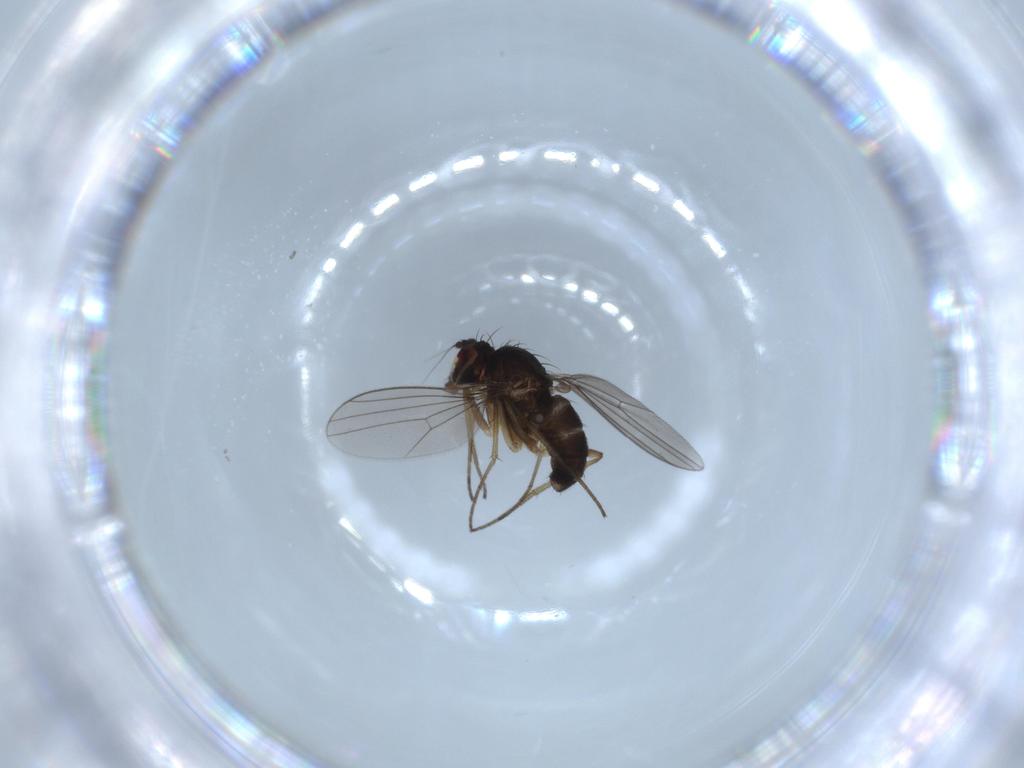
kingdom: Animalia
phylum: Arthropoda
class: Insecta
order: Diptera
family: Dolichopodidae
